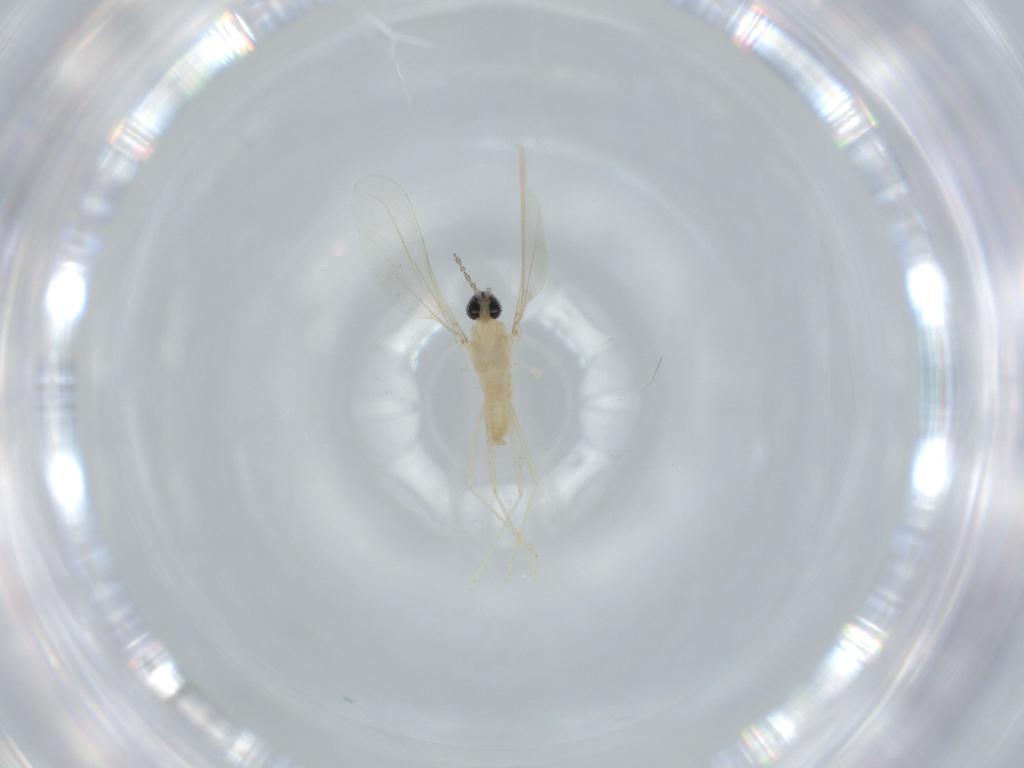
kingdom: Animalia
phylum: Arthropoda
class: Insecta
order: Diptera
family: Cecidomyiidae
